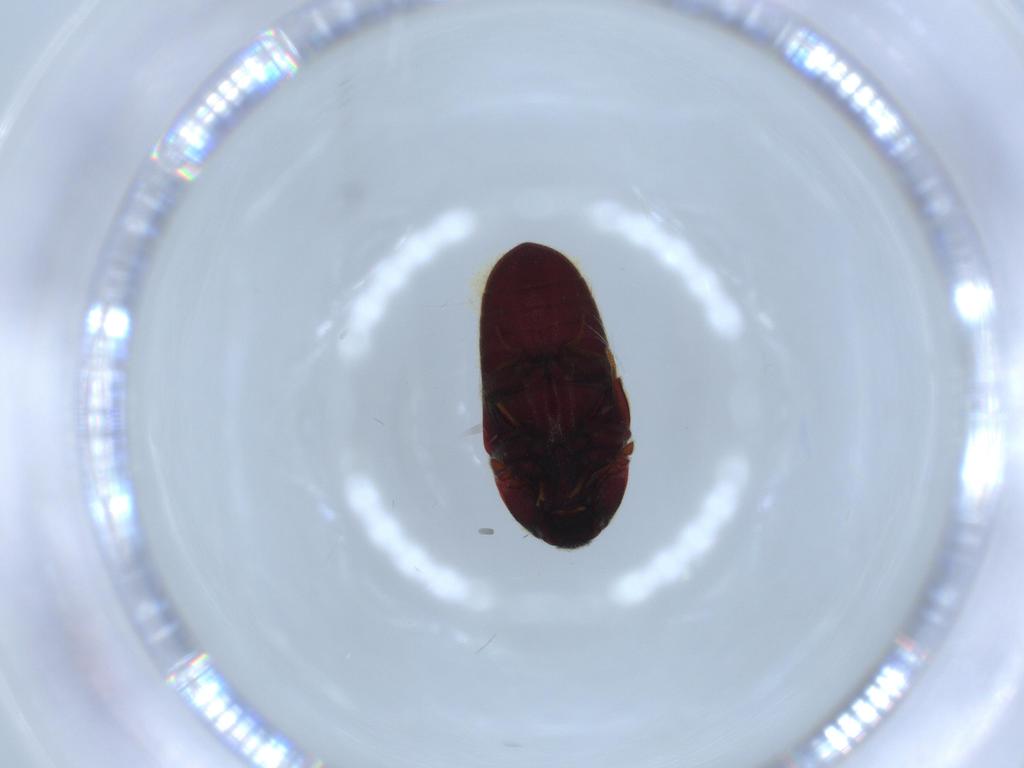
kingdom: Animalia
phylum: Arthropoda
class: Insecta
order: Coleoptera
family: Throscidae
